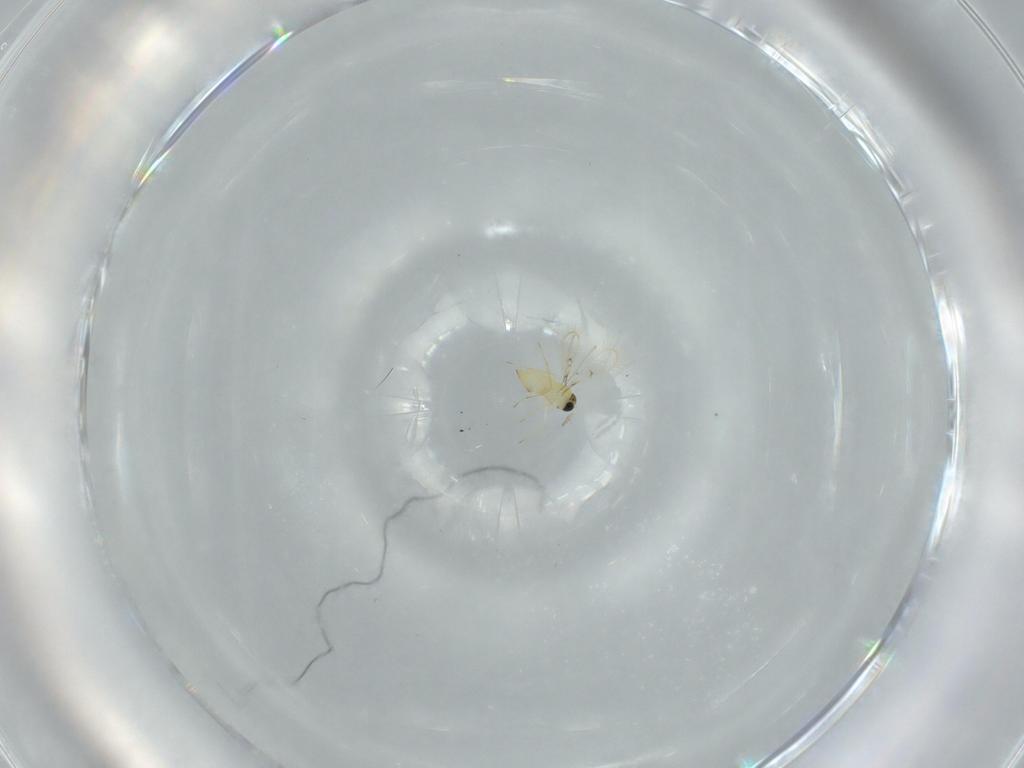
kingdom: Animalia
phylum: Arthropoda
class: Insecta
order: Hymenoptera
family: Trichogrammatidae
